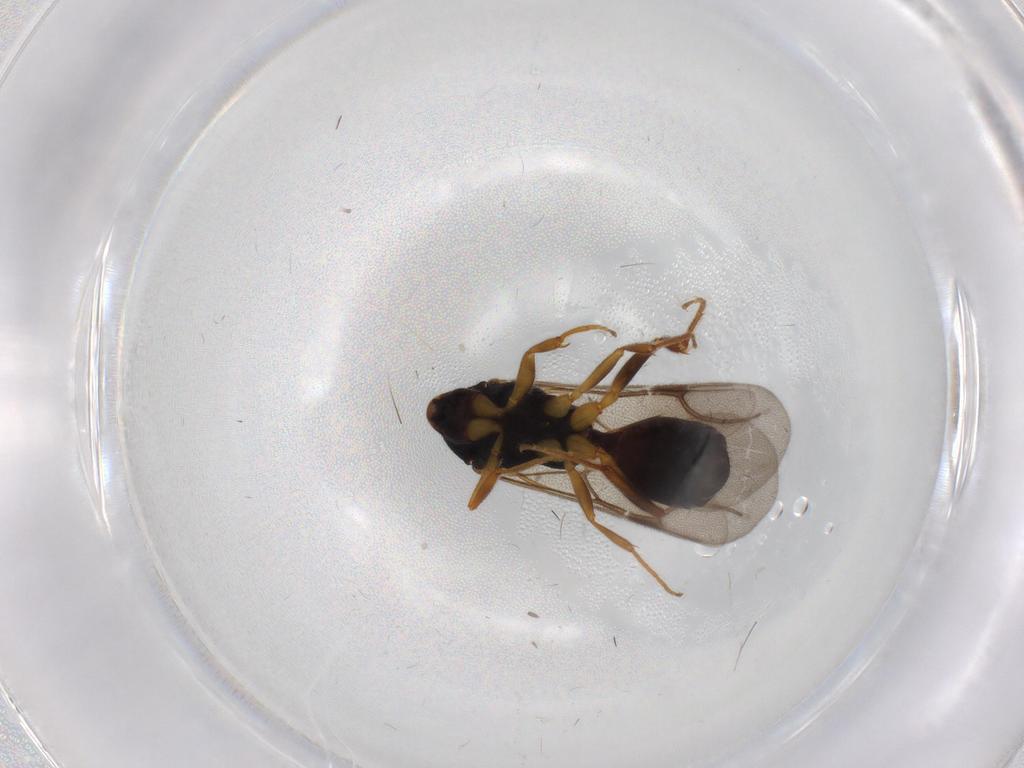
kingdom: Animalia
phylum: Arthropoda
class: Insecta
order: Hymenoptera
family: Bethylidae
